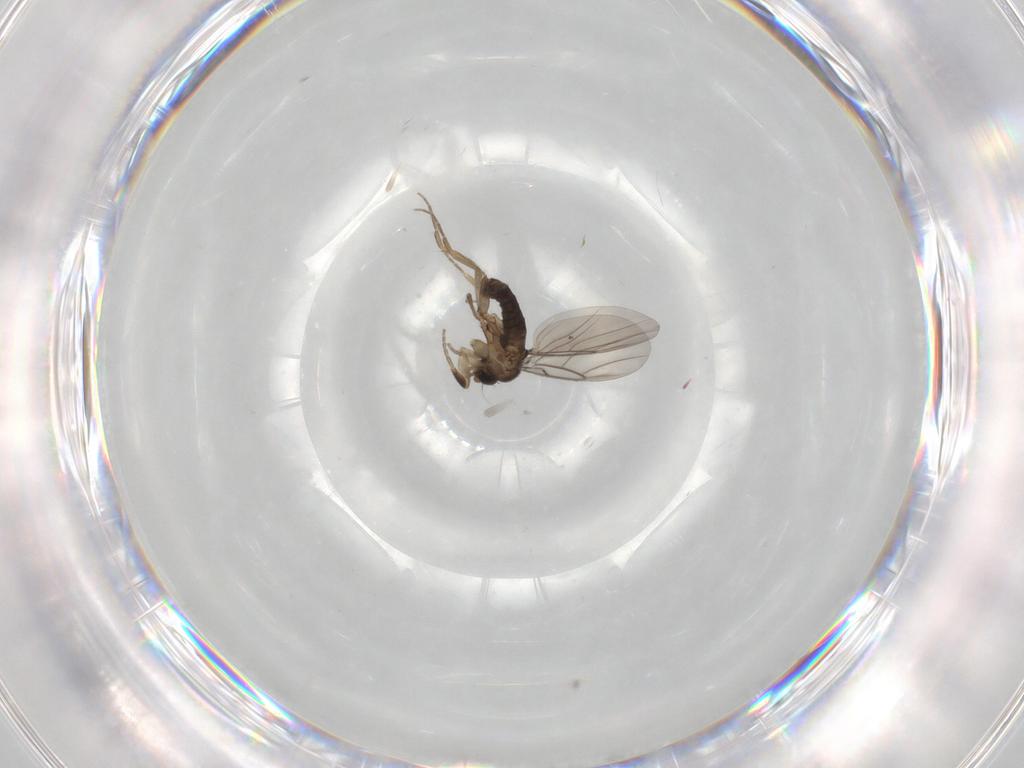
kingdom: Animalia
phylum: Arthropoda
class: Insecta
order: Diptera
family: Phoridae
